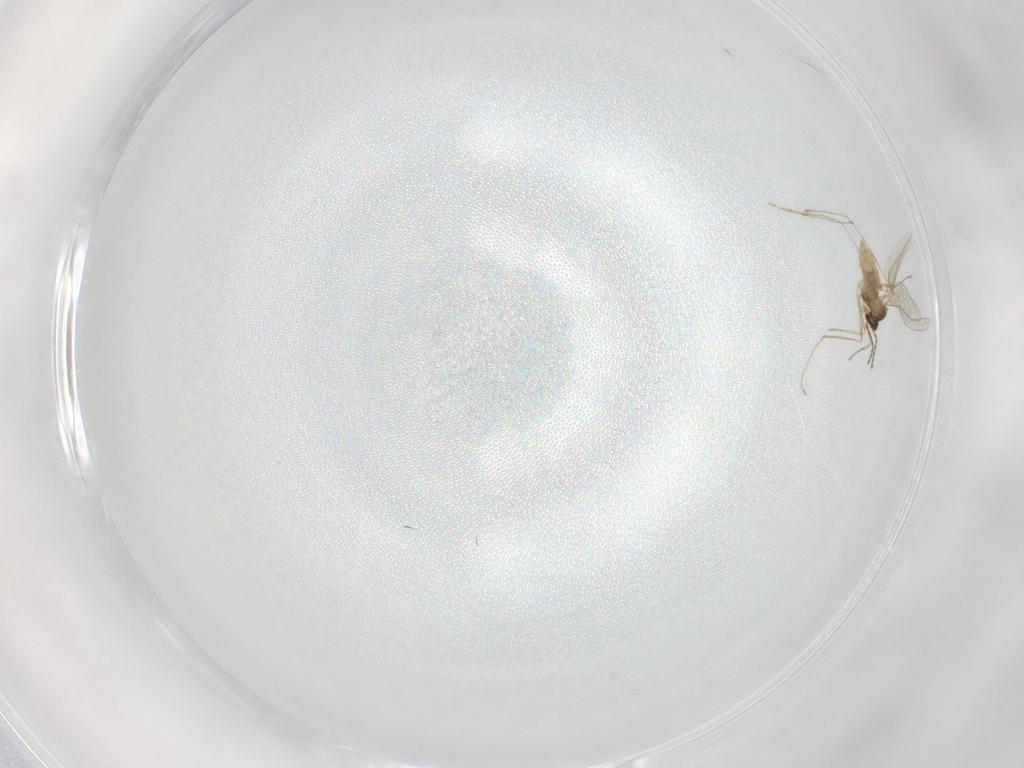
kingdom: Animalia
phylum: Arthropoda
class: Insecta
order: Diptera
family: Cecidomyiidae
